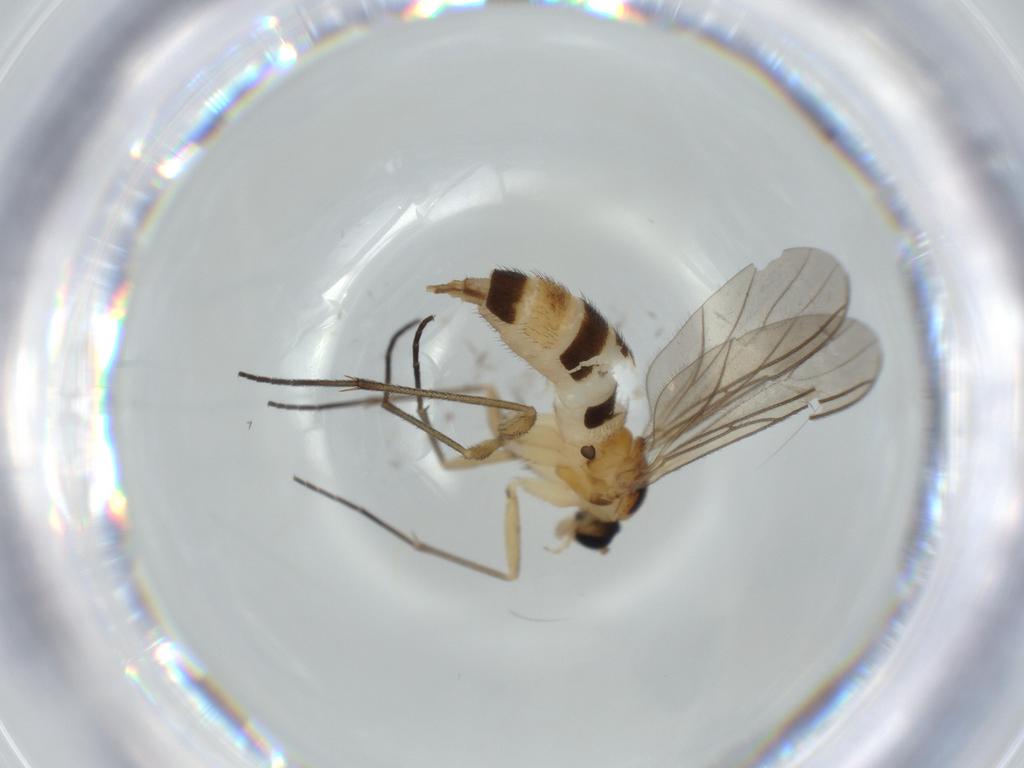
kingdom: Animalia
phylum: Arthropoda
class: Insecta
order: Diptera
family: Sciaridae
